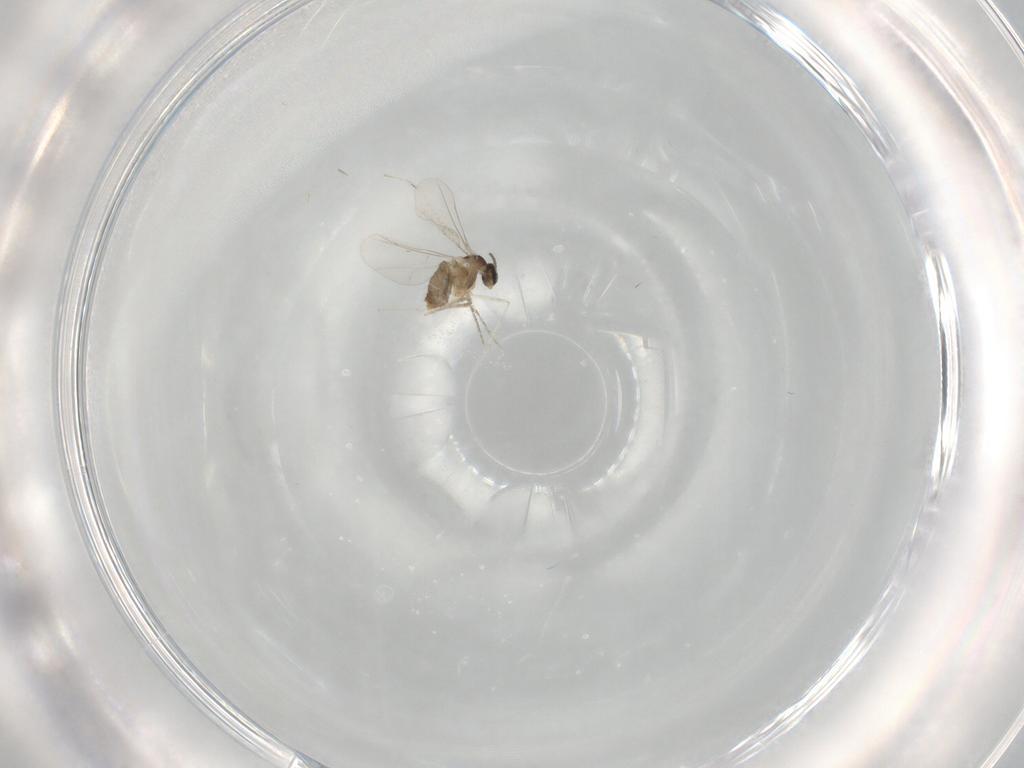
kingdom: Animalia
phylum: Arthropoda
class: Insecta
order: Diptera
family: Cecidomyiidae
